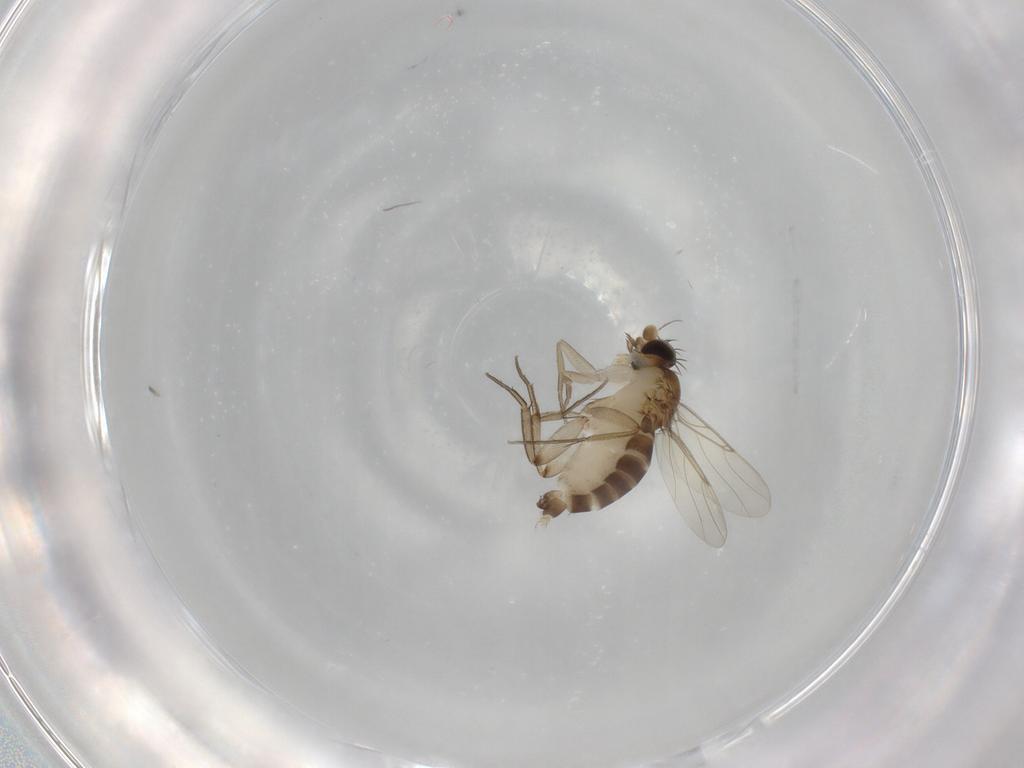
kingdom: Animalia
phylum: Arthropoda
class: Insecta
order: Diptera
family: Phoridae
